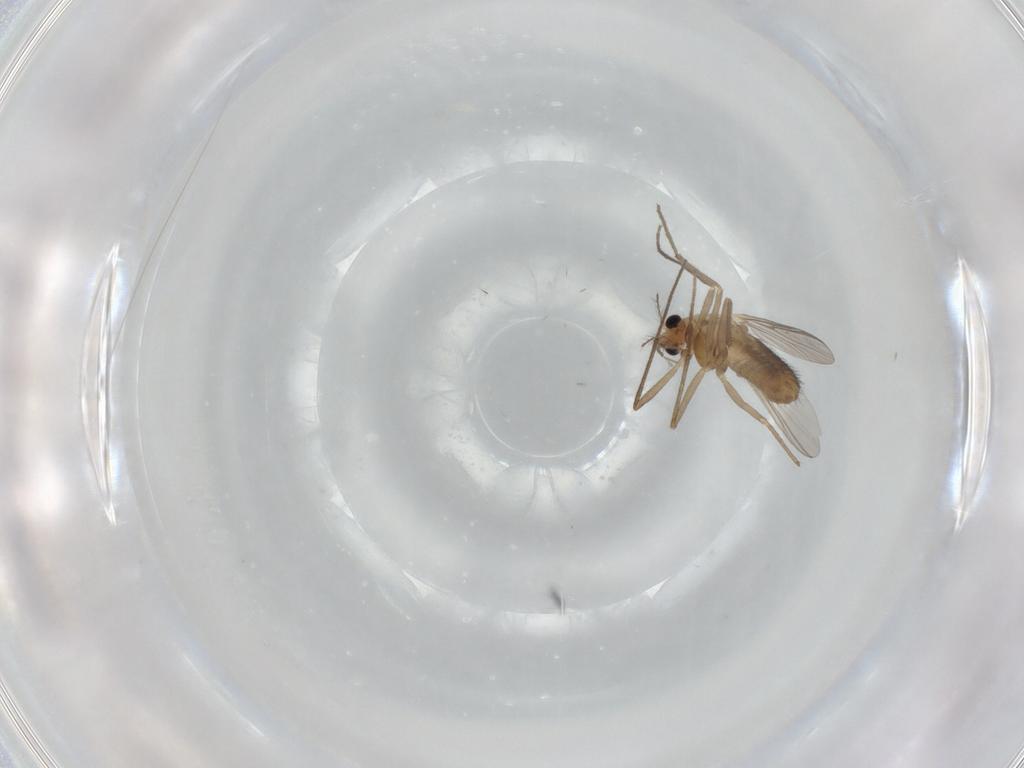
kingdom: Animalia
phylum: Arthropoda
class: Insecta
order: Diptera
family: Chironomidae
